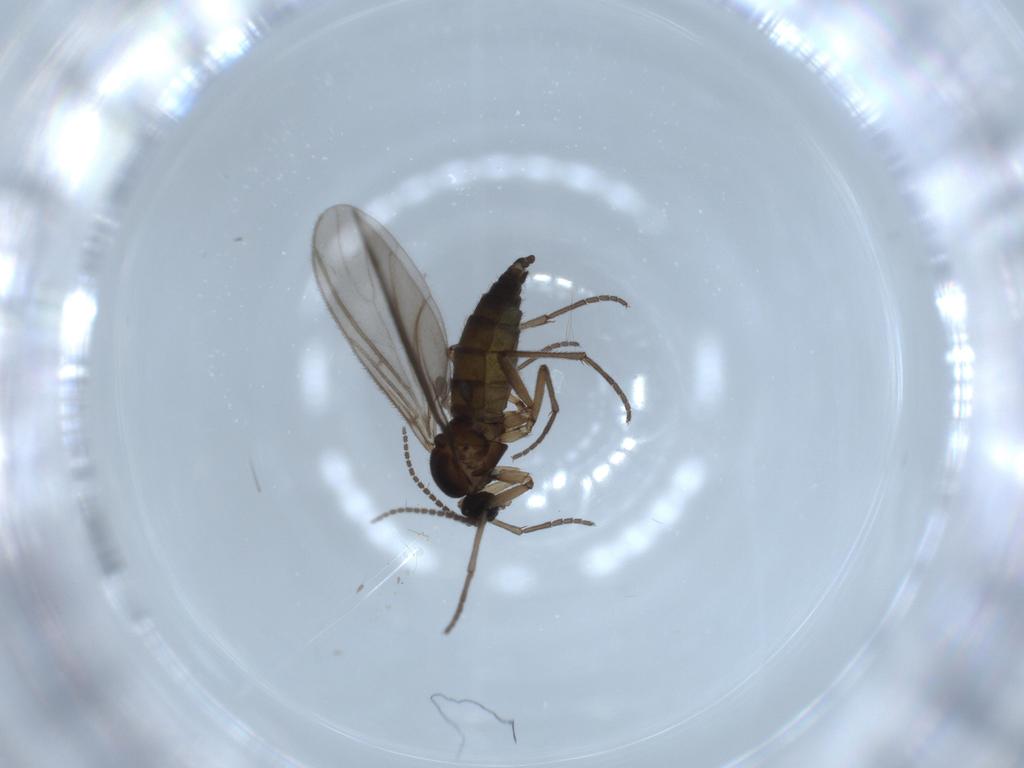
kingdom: Animalia
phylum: Arthropoda
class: Insecta
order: Diptera
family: Sciaridae
